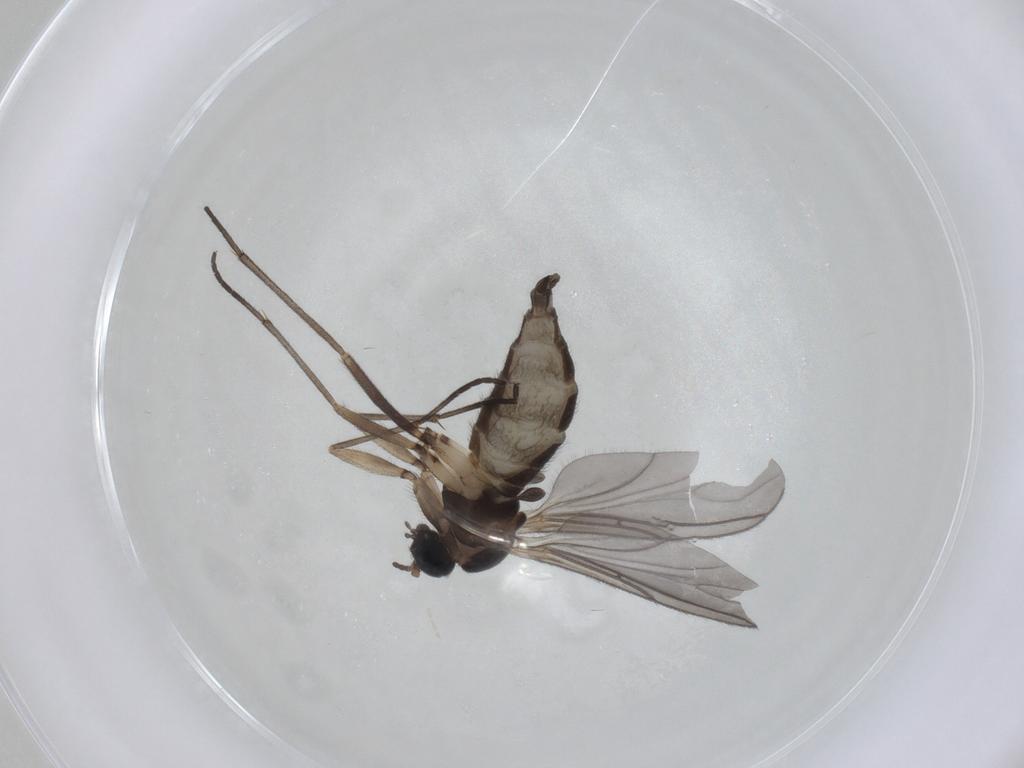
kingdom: Animalia
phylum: Arthropoda
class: Insecta
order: Diptera
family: Sciaridae
